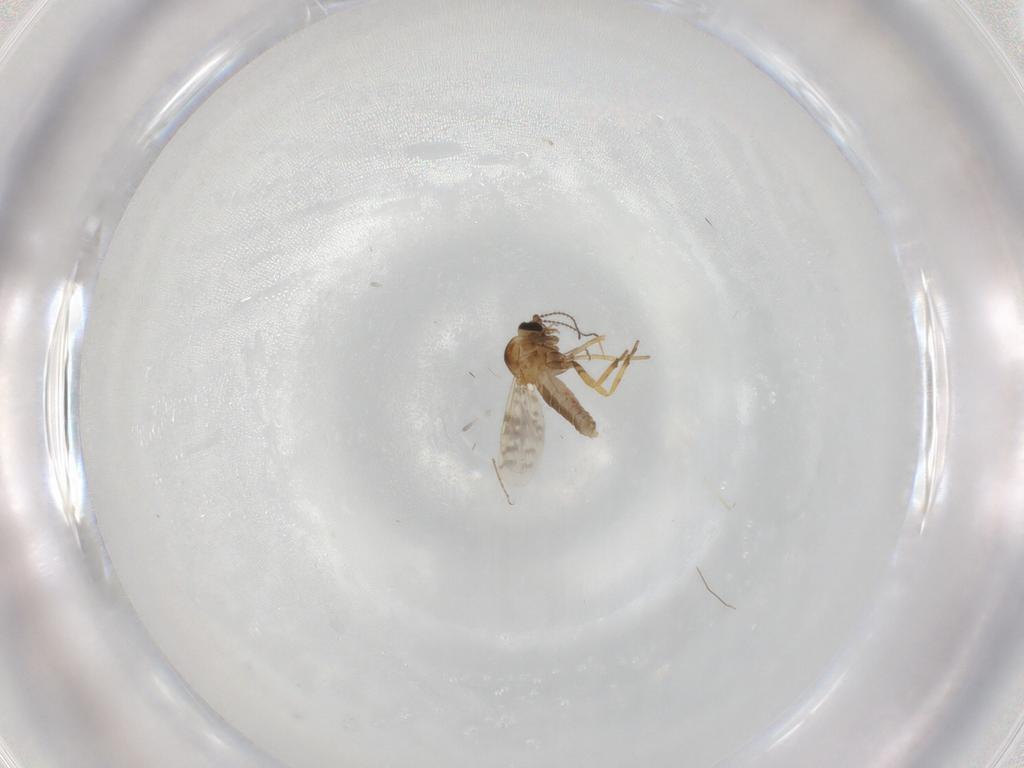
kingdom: Animalia
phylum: Arthropoda
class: Insecta
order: Diptera
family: Ceratopogonidae
